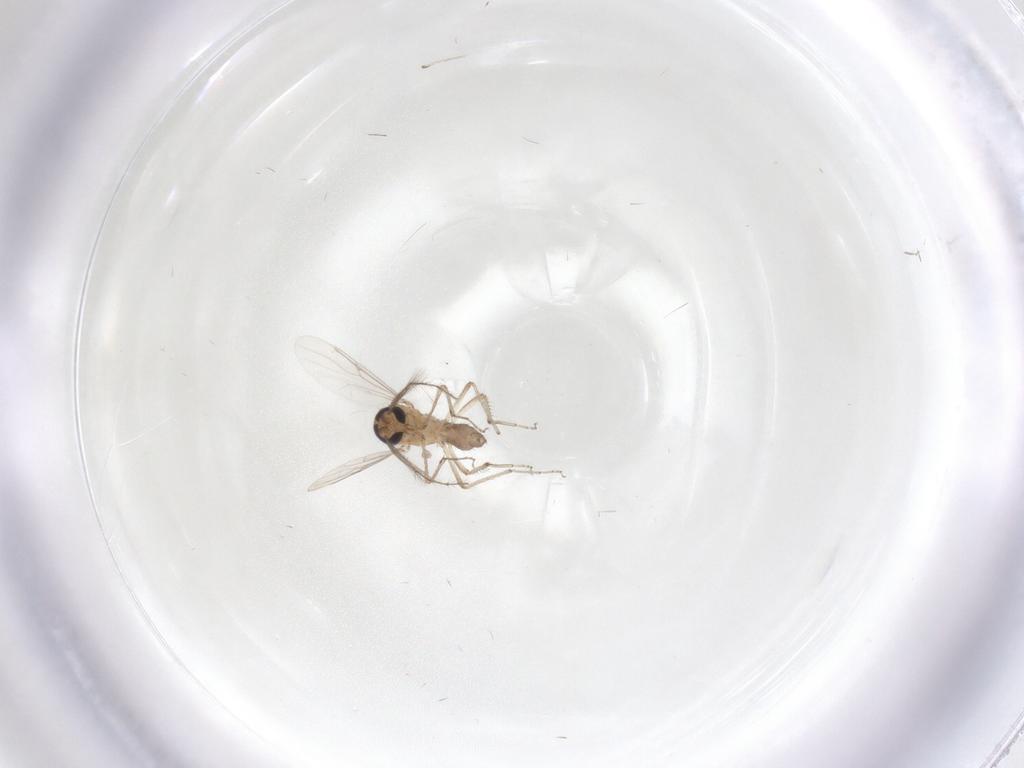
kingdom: Animalia
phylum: Arthropoda
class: Insecta
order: Diptera
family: Ceratopogonidae
